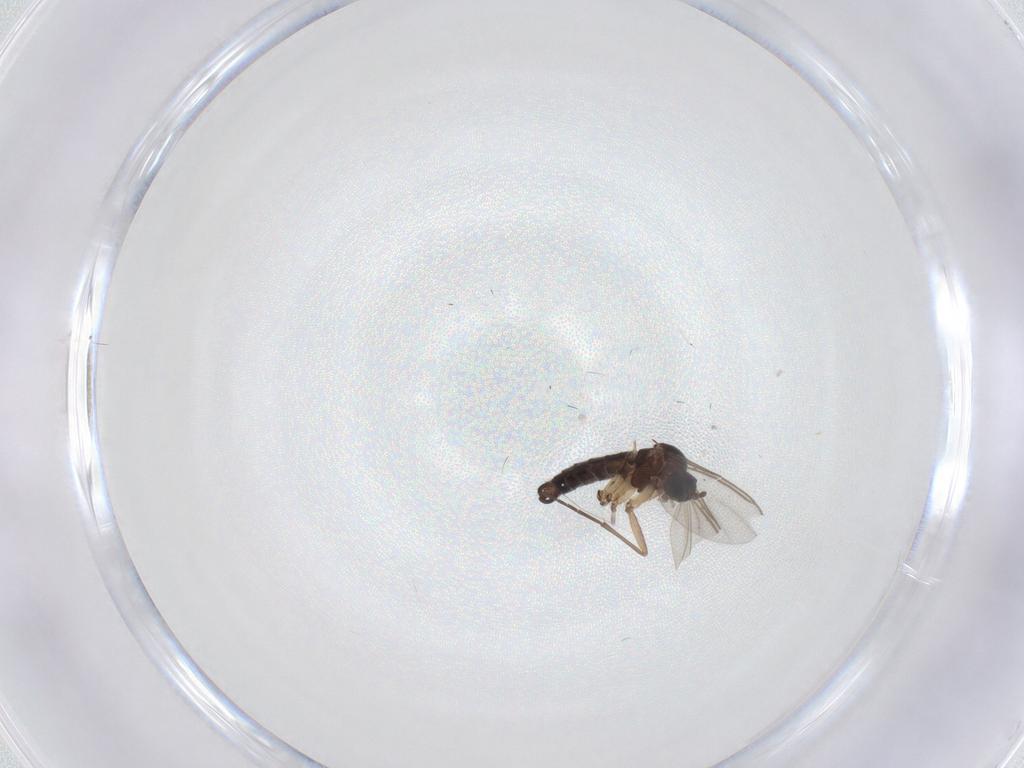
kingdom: Animalia
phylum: Arthropoda
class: Insecta
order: Diptera
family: Sciaridae
